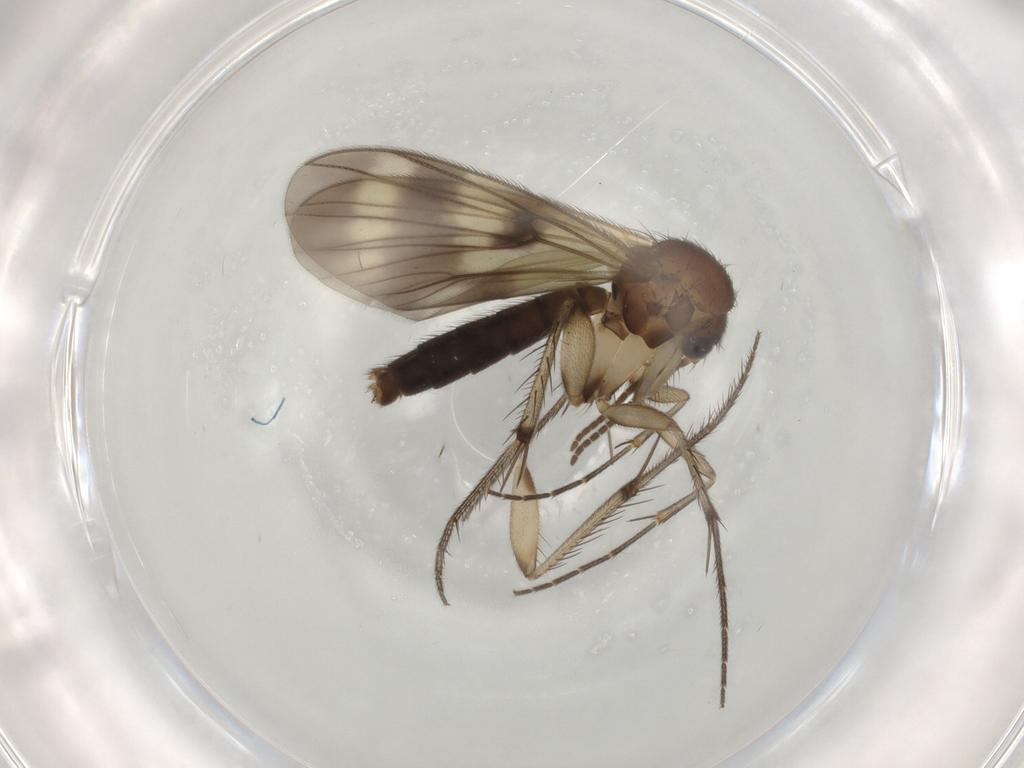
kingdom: Animalia
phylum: Arthropoda
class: Insecta
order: Diptera
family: Mycetophilidae
